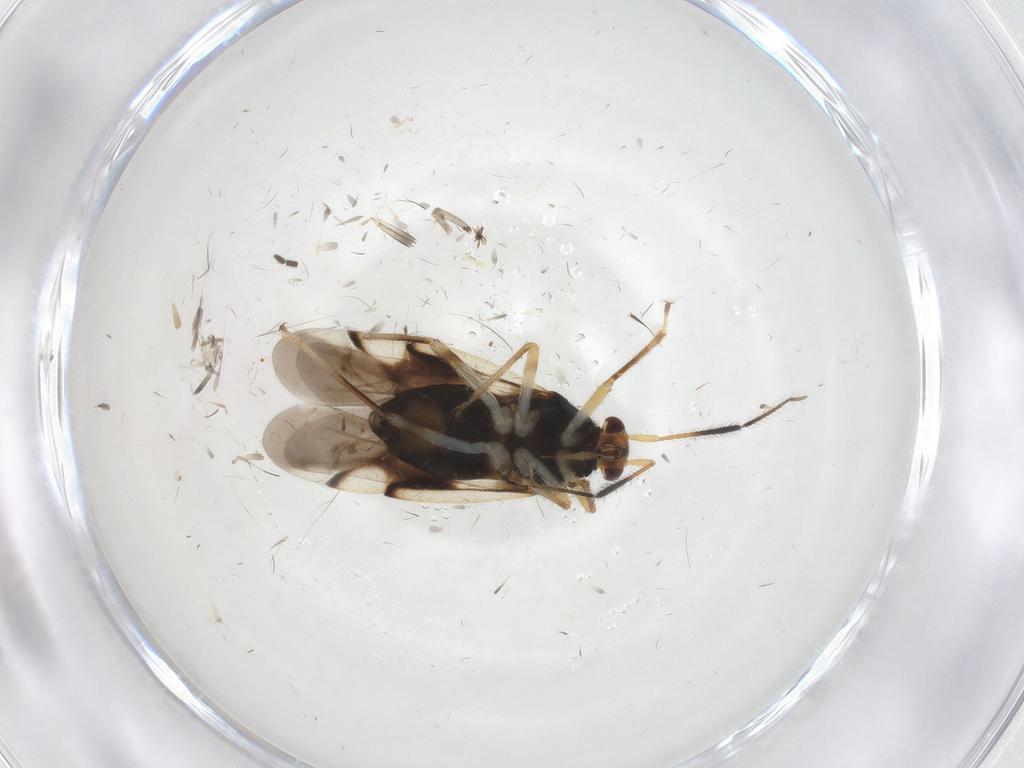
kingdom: Animalia
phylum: Arthropoda
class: Insecta
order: Hemiptera
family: Miridae
